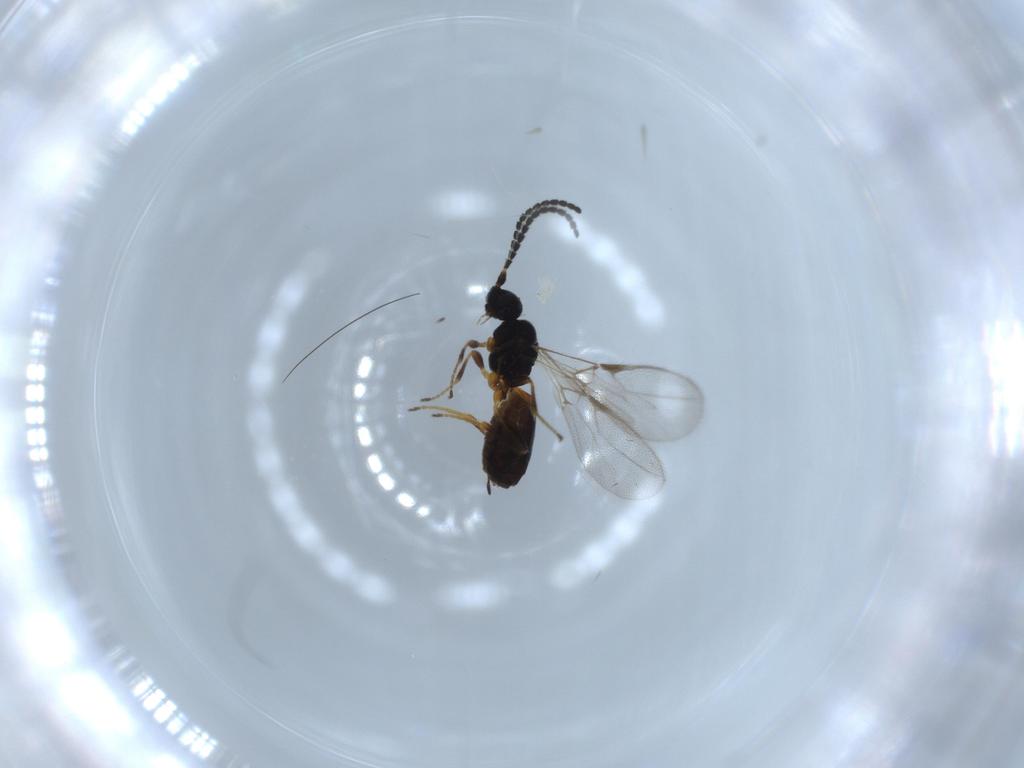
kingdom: Animalia
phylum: Arthropoda
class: Insecta
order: Hymenoptera
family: Braconidae
